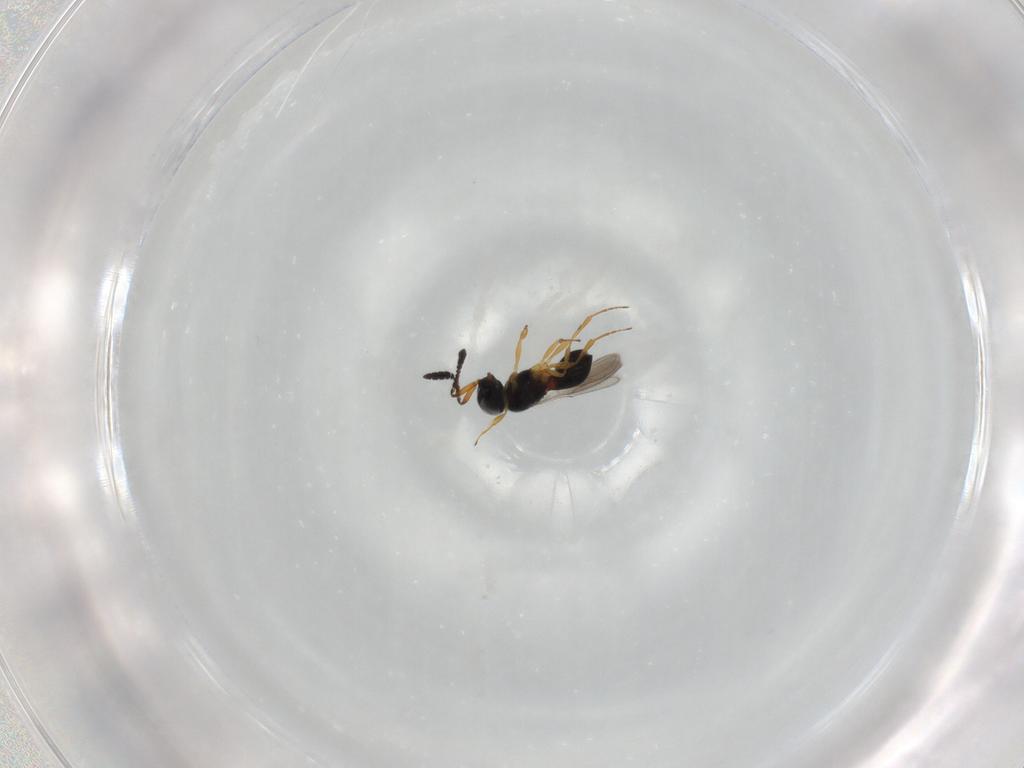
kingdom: Animalia
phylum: Arthropoda
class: Insecta
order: Hymenoptera
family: Scelionidae
